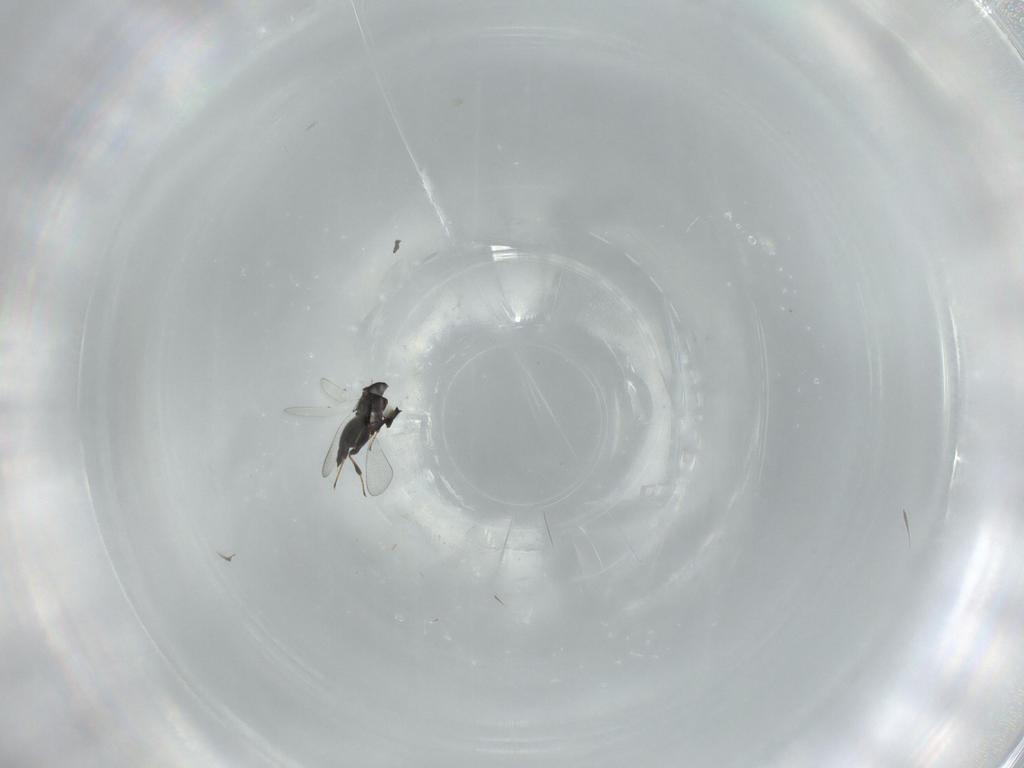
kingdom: Animalia
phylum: Arthropoda
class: Insecta
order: Hymenoptera
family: Platygastridae
